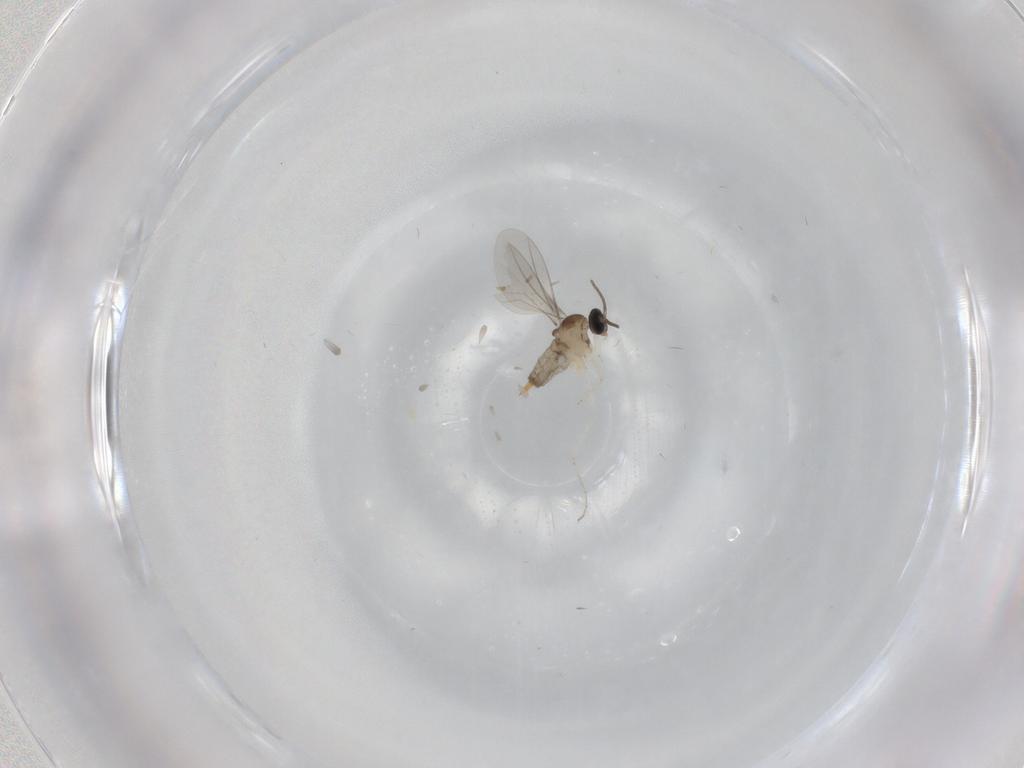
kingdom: Animalia
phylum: Arthropoda
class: Insecta
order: Diptera
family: Cecidomyiidae
